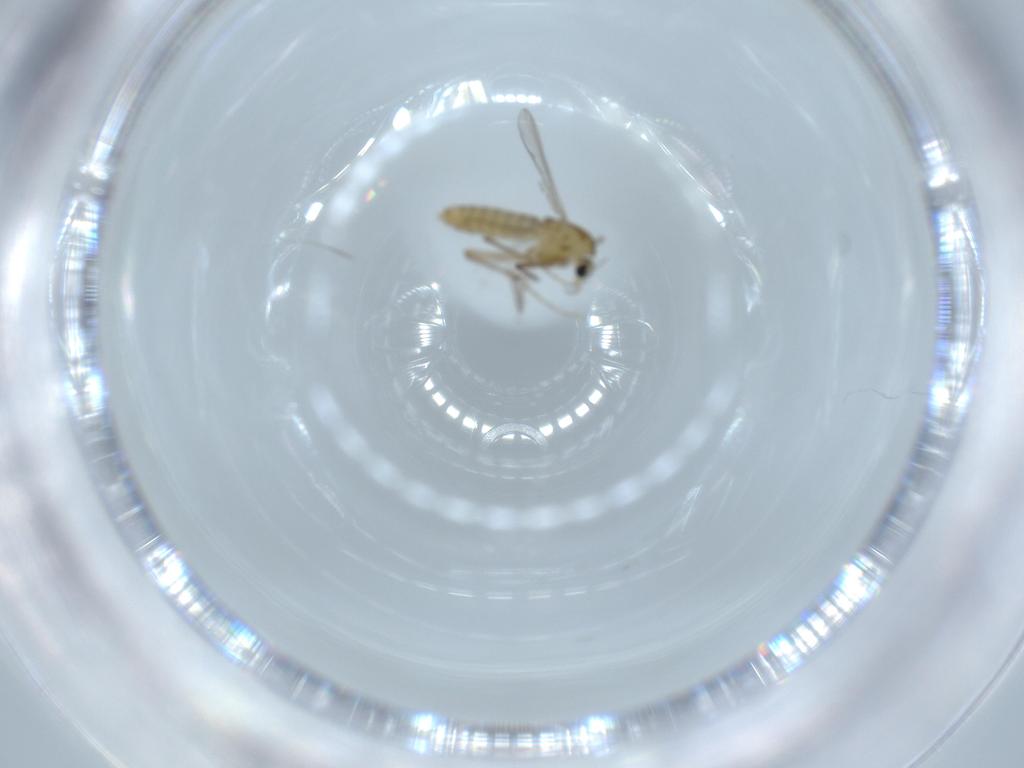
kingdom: Animalia
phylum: Arthropoda
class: Insecta
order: Diptera
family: Chironomidae
